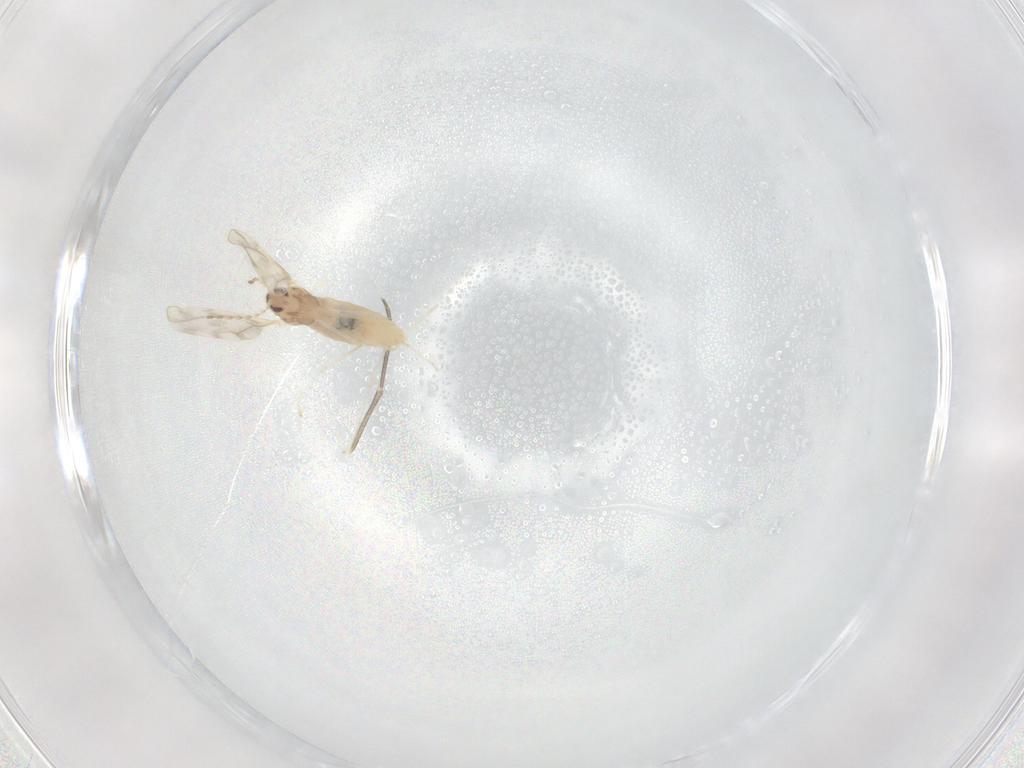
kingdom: Animalia
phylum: Arthropoda
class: Insecta
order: Diptera
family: Cecidomyiidae
